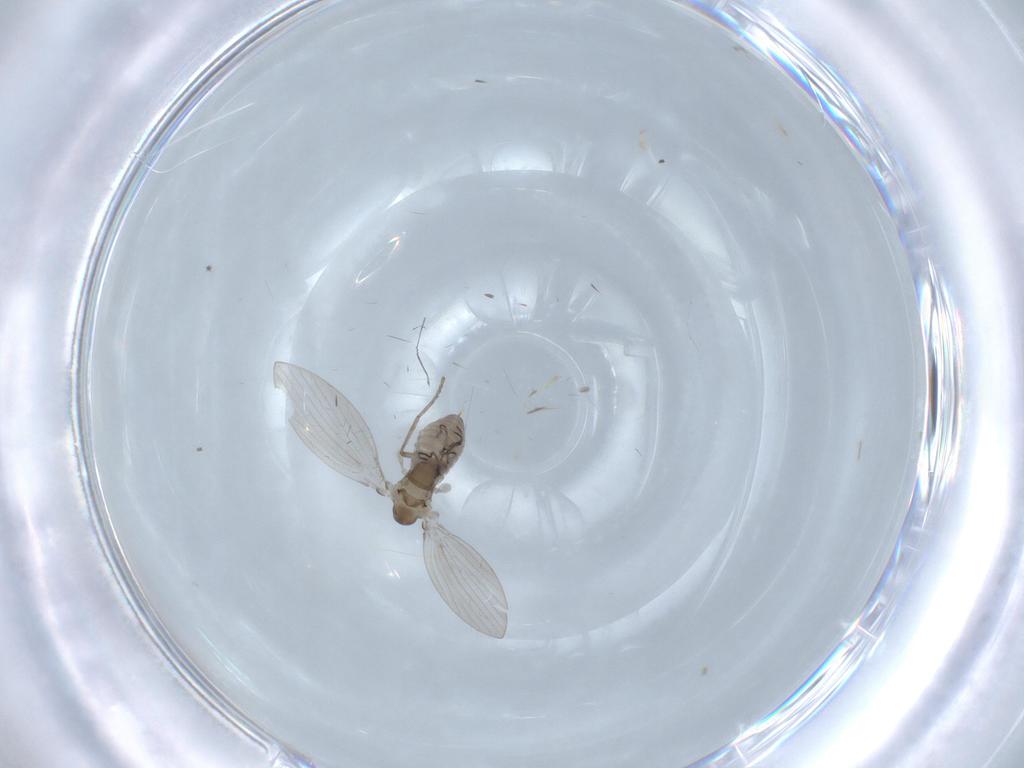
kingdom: Animalia
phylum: Arthropoda
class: Insecta
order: Diptera
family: Psychodidae
